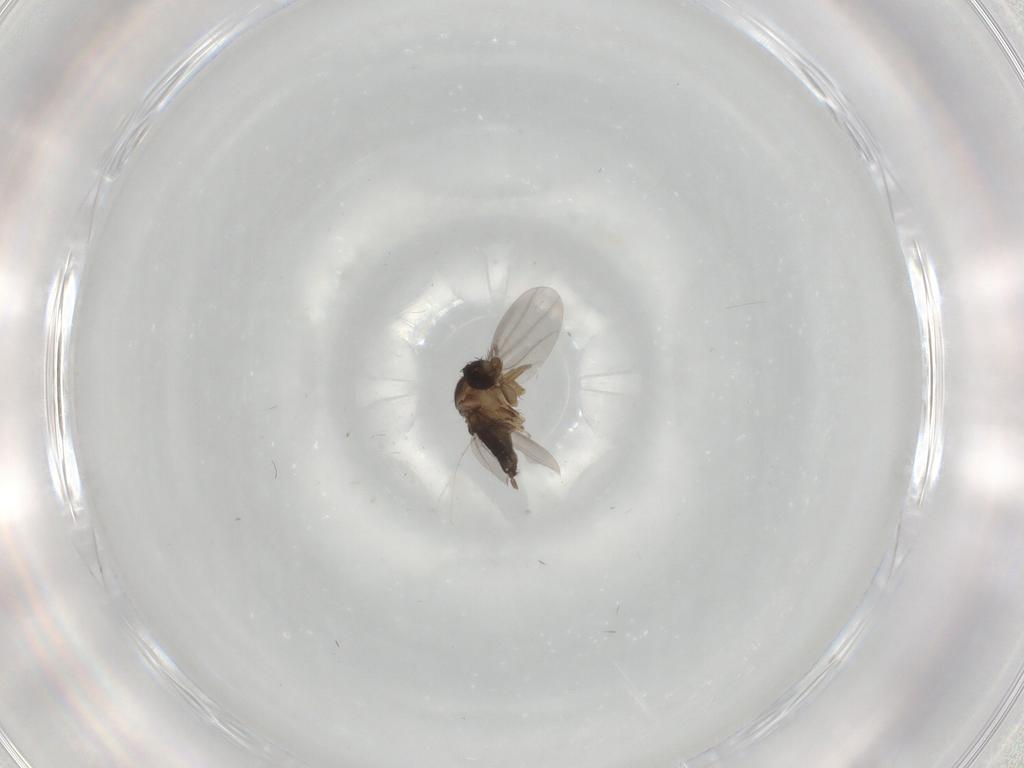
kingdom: Animalia
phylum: Arthropoda
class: Insecta
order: Diptera
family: Phoridae
